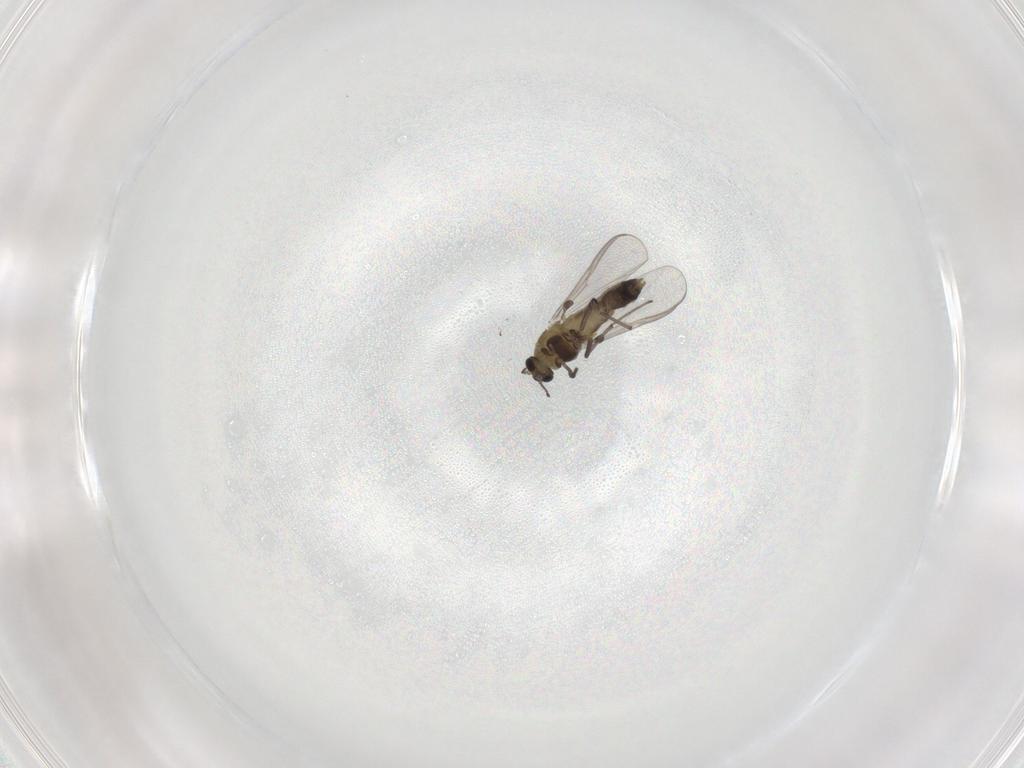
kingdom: Animalia
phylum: Arthropoda
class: Insecta
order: Diptera
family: Chironomidae
